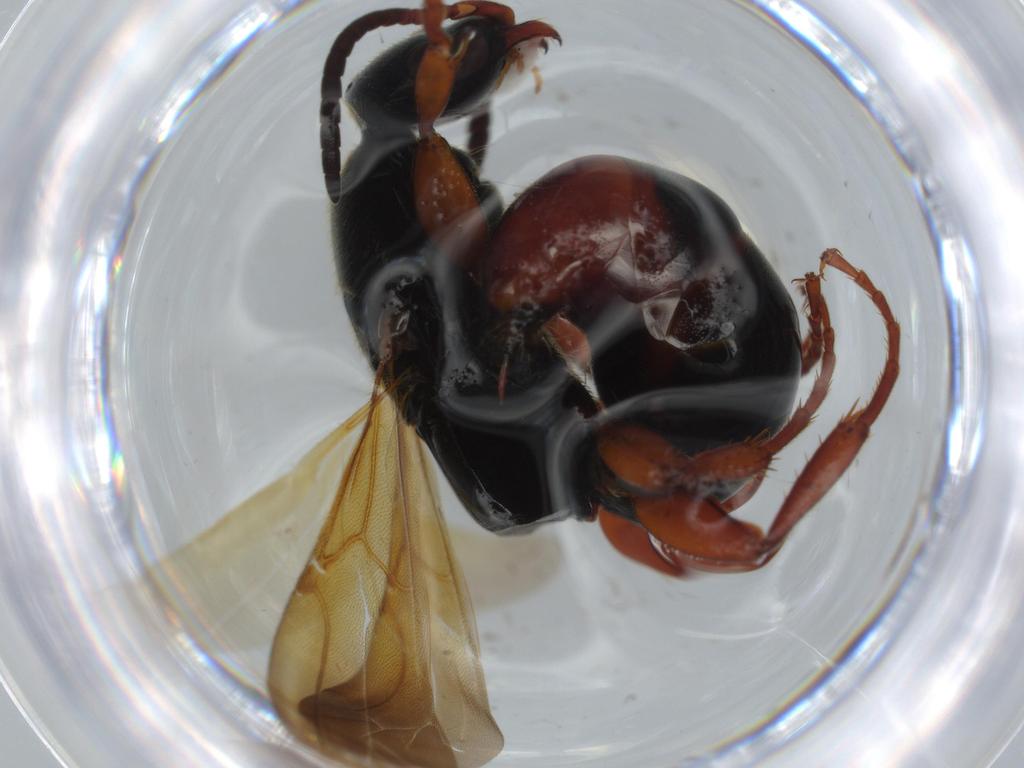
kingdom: Animalia
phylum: Arthropoda
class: Insecta
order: Hymenoptera
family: Bethylidae
